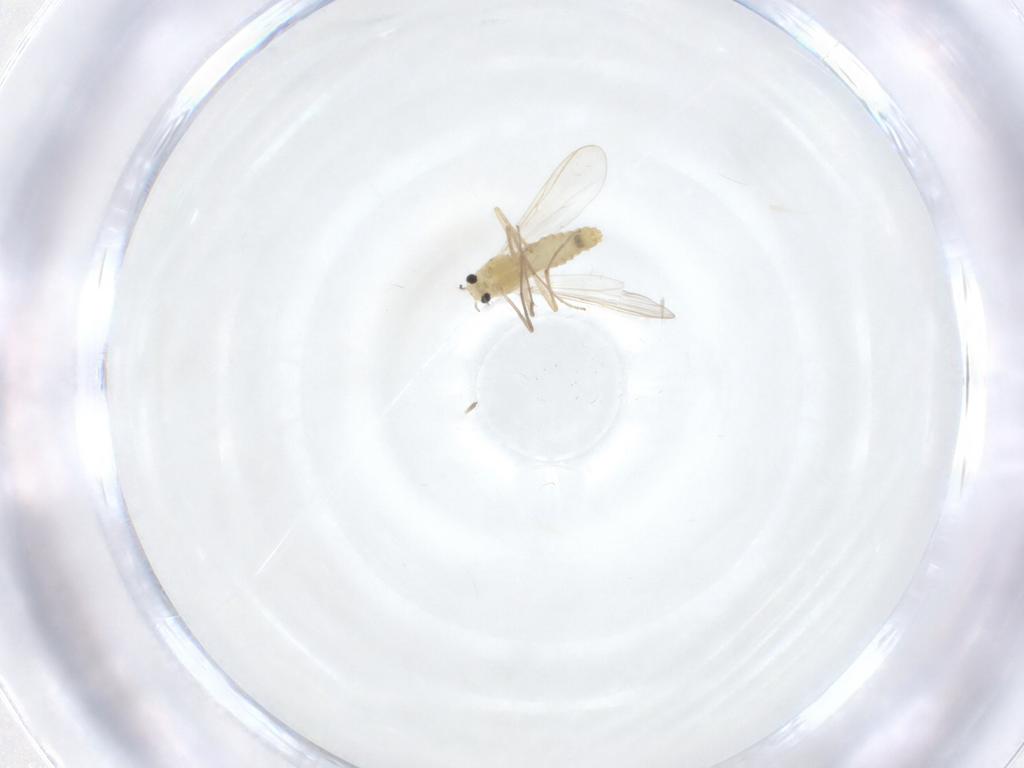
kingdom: Animalia
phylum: Arthropoda
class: Insecta
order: Diptera
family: Chironomidae
